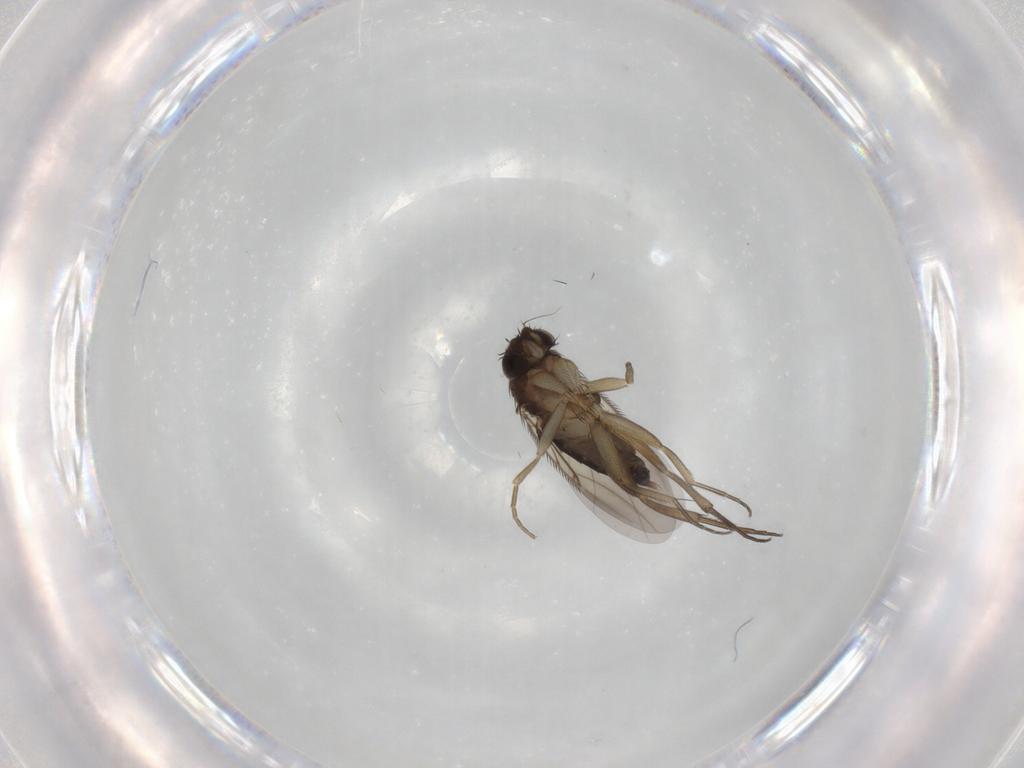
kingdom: Animalia
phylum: Arthropoda
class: Insecta
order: Diptera
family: Phoridae
